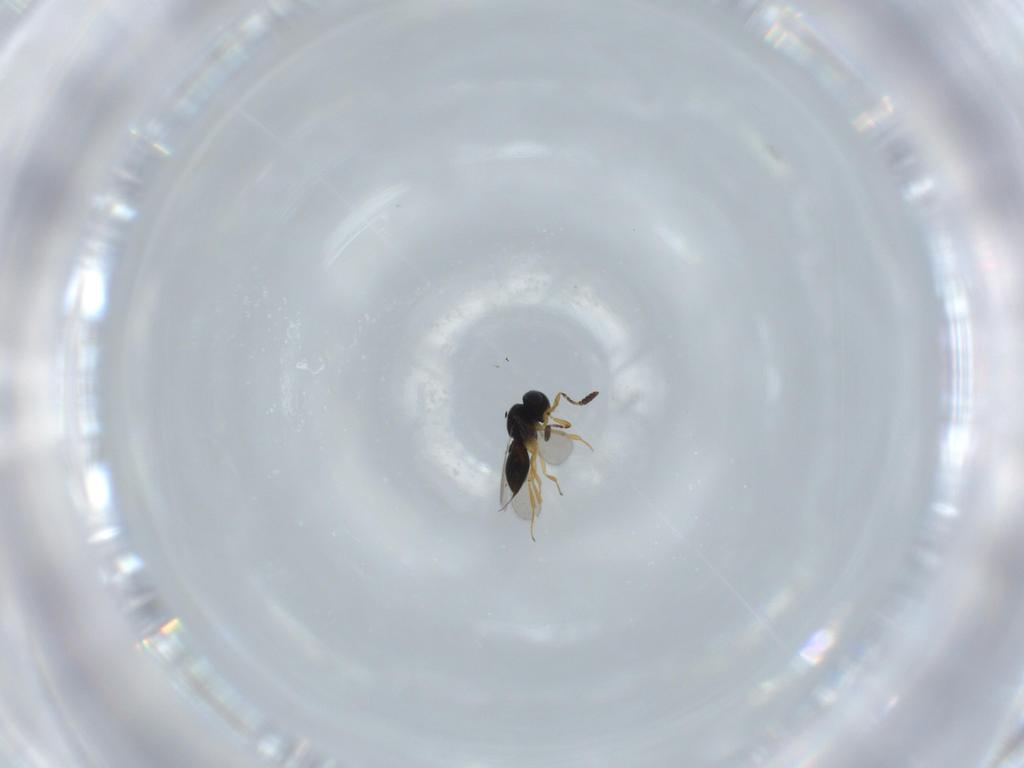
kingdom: Animalia
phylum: Arthropoda
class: Insecta
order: Hymenoptera
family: Scelionidae
